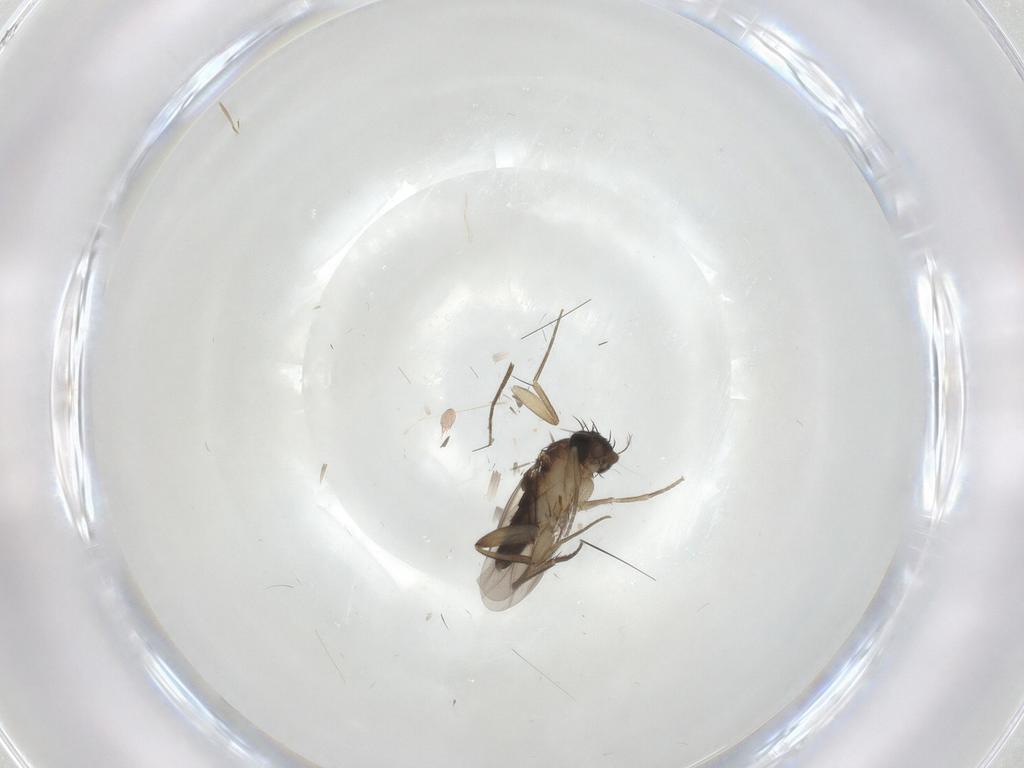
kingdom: Animalia
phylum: Arthropoda
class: Insecta
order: Diptera
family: Phoridae
